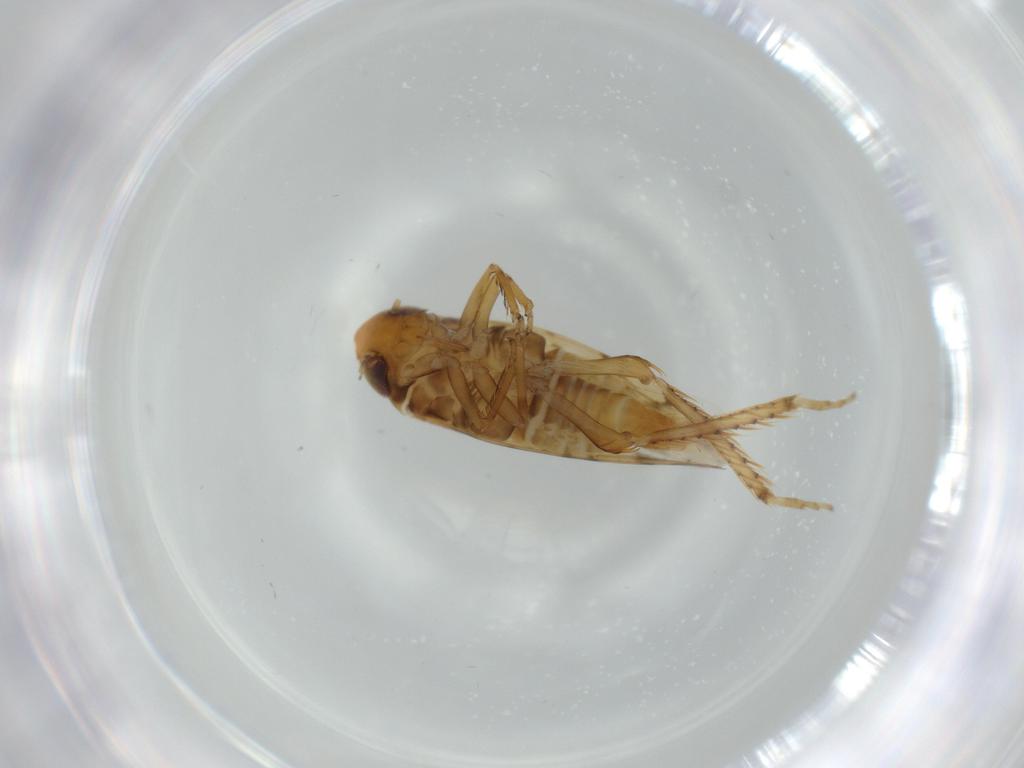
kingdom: Animalia
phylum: Arthropoda
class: Insecta
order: Hemiptera
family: Cicadellidae
